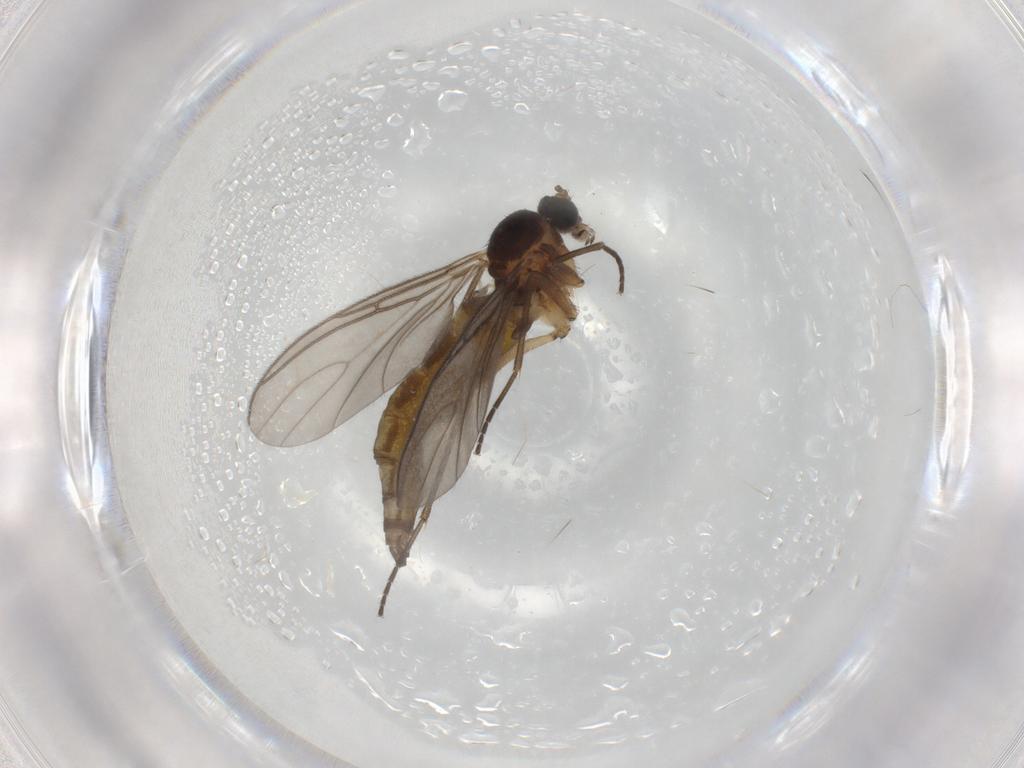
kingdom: Animalia
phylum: Arthropoda
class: Insecta
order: Diptera
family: Sciaridae
